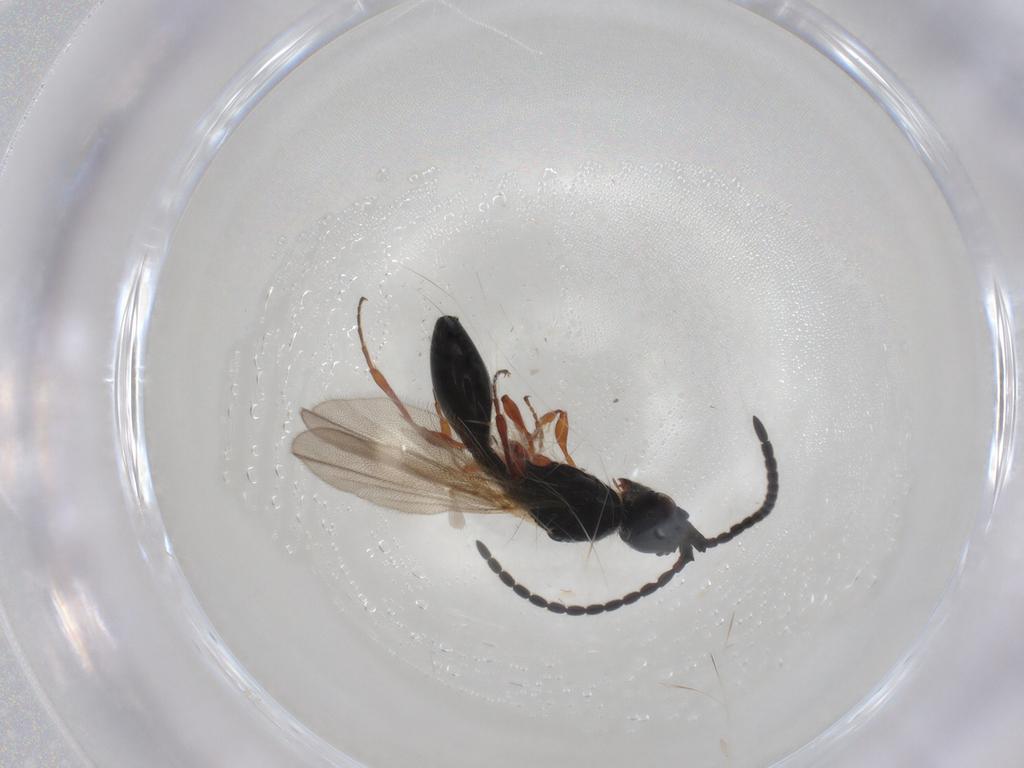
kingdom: Animalia
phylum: Arthropoda
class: Insecta
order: Hymenoptera
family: Diapriidae
